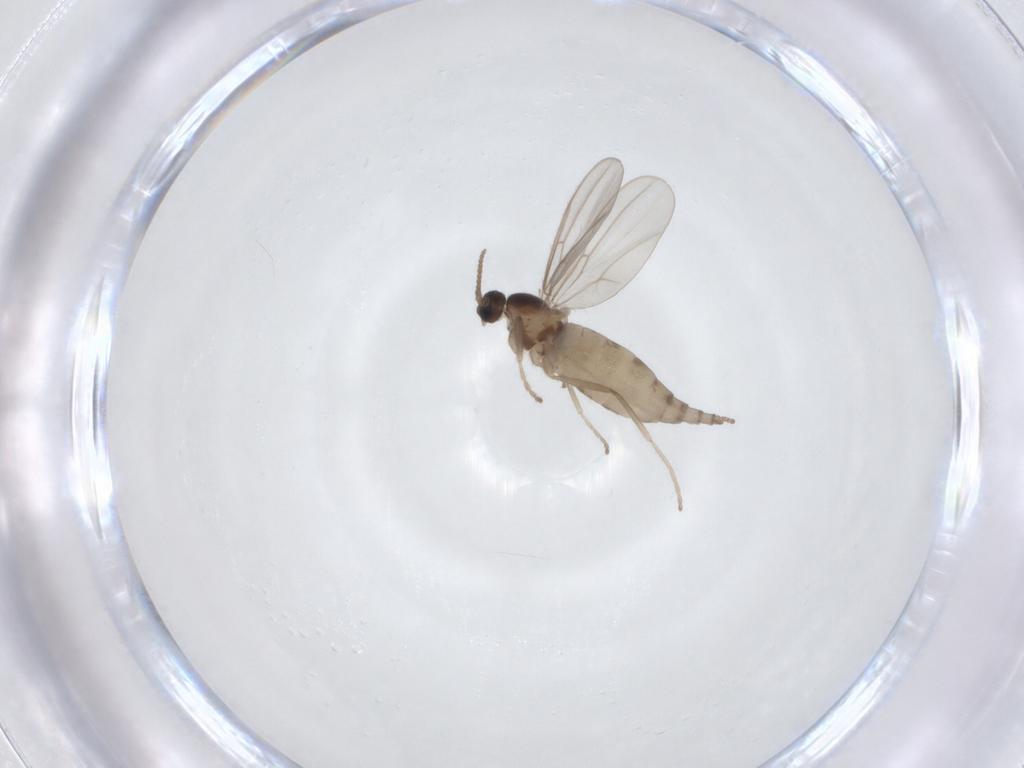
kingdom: Animalia
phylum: Arthropoda
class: Insecta
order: Diptera
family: Cecidomyiidae
